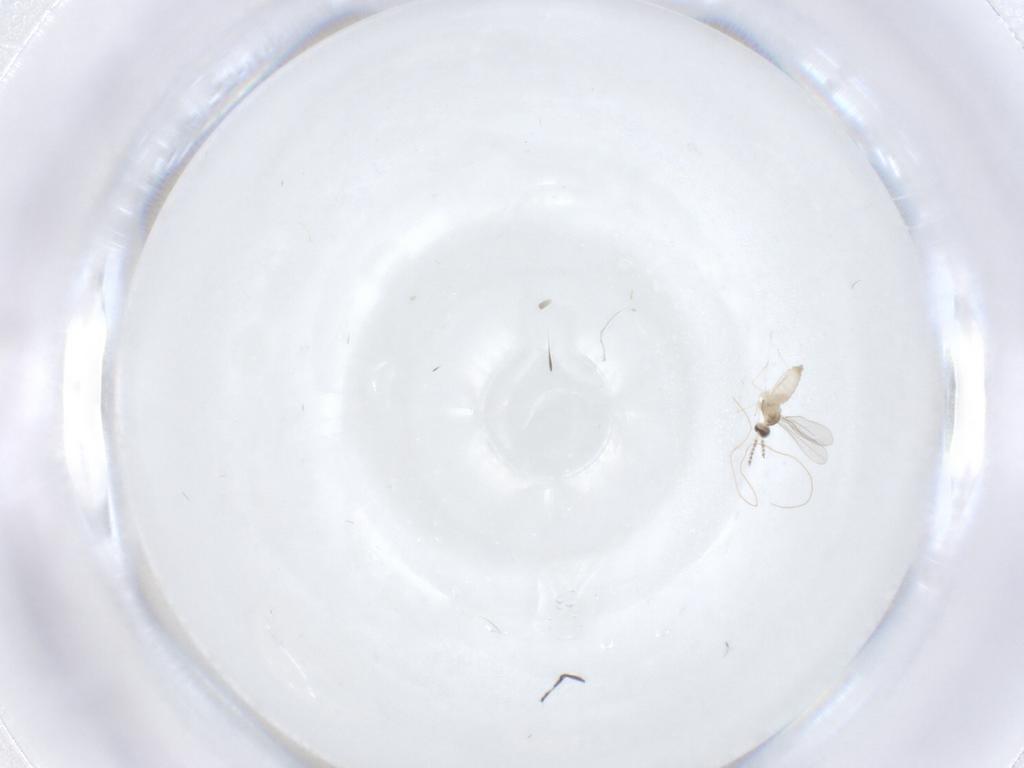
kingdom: Animalia
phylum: Arthropoda
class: Insecta
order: Diptera
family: Cecidomyiidae
